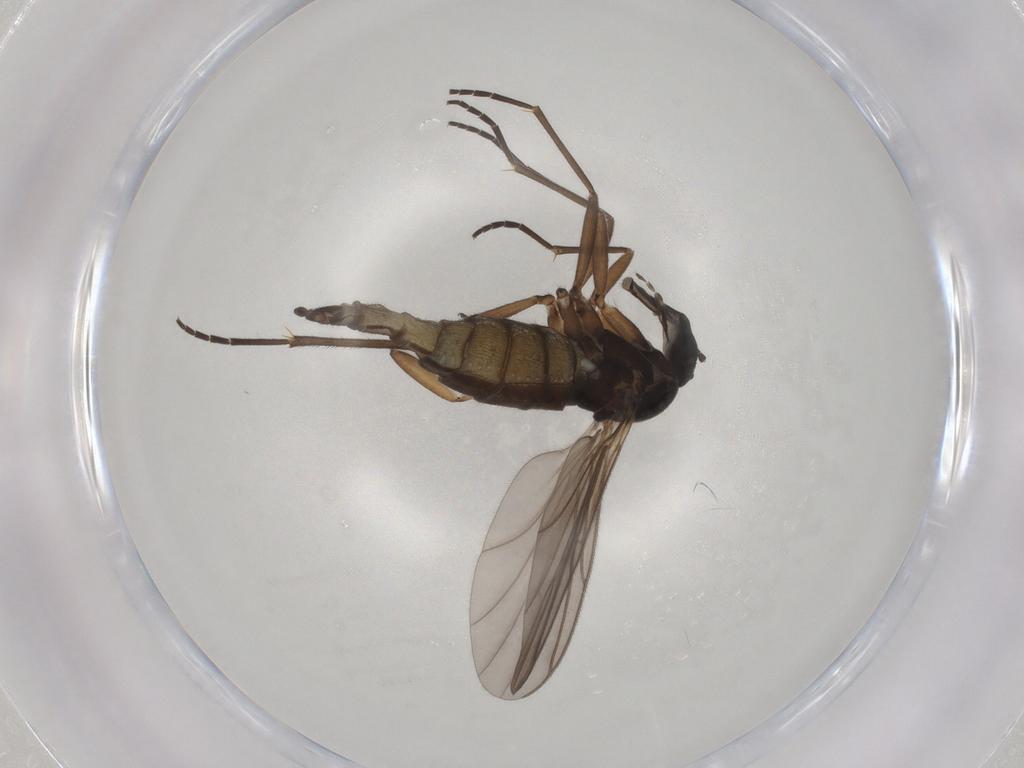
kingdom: Animalia
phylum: Arthropoda
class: Insecta
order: Diptera
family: Sciaridae
